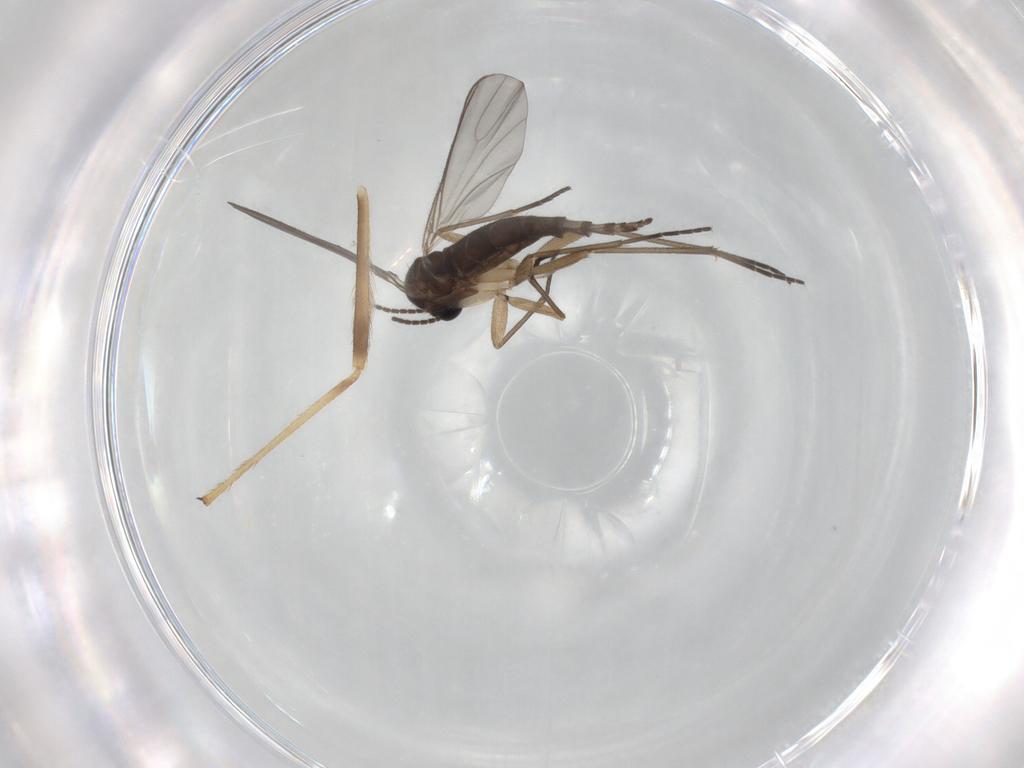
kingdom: Animalia
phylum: Arthropoda
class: Insecta
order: Diptera
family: Sciaridae
